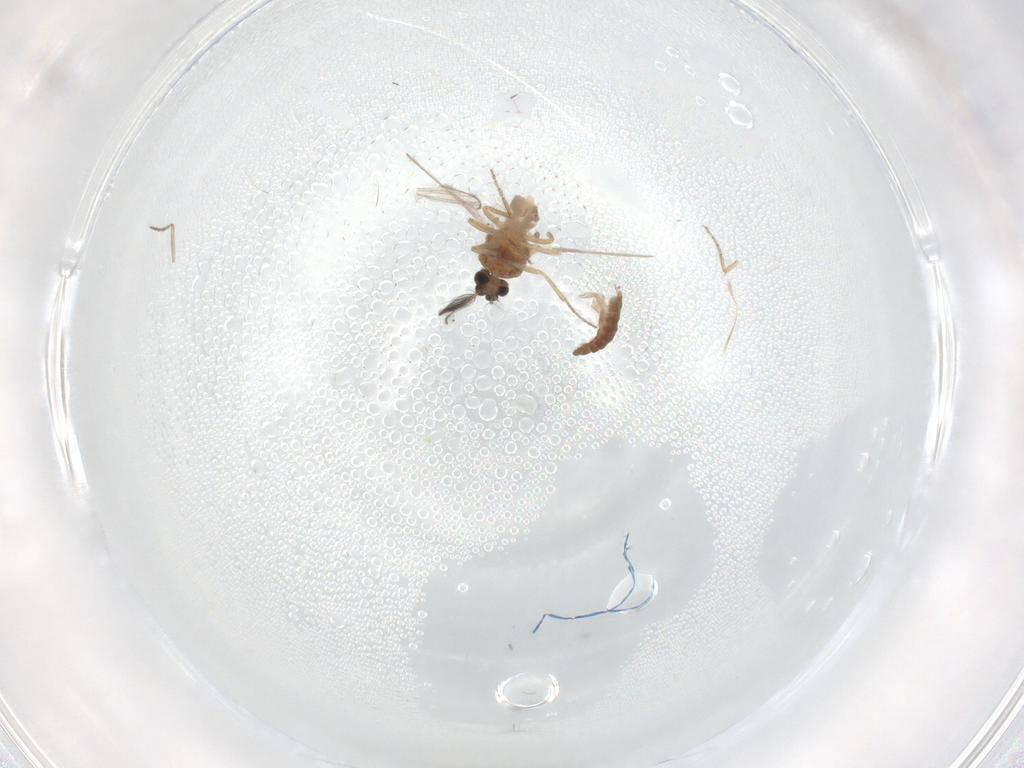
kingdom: Animalia
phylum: Arthropoda
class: Insecta
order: Diptera
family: Ceratopogonidae
